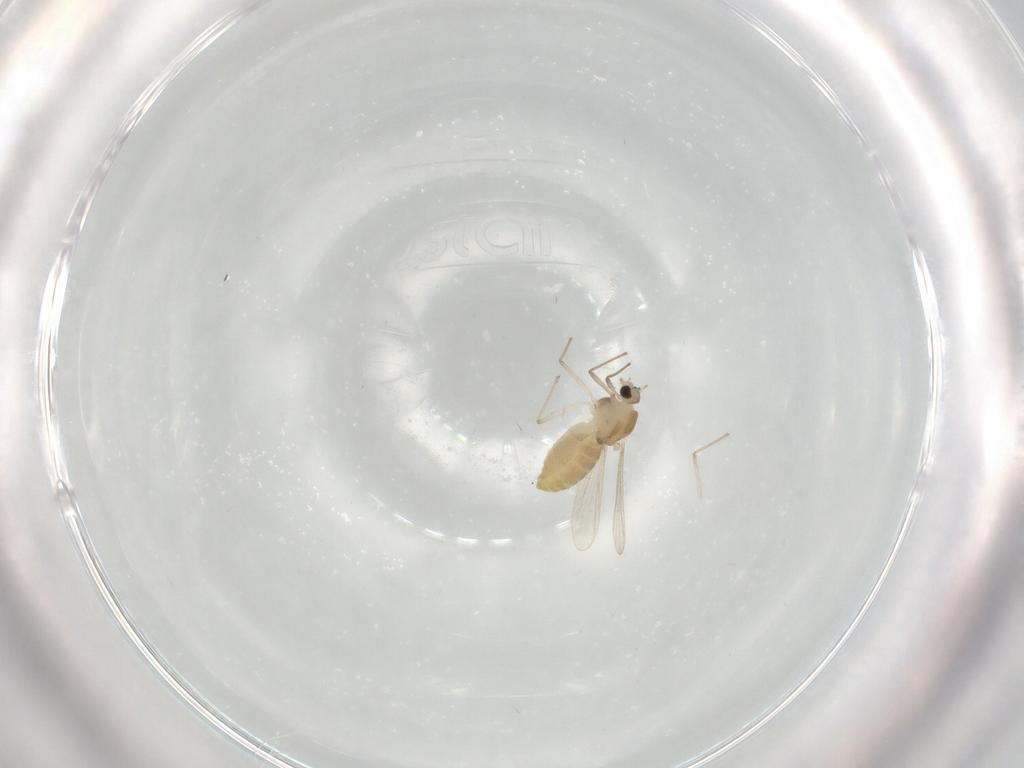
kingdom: Animalia
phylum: Arthropoda
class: Insecta
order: Diptera
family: Chironomidae
